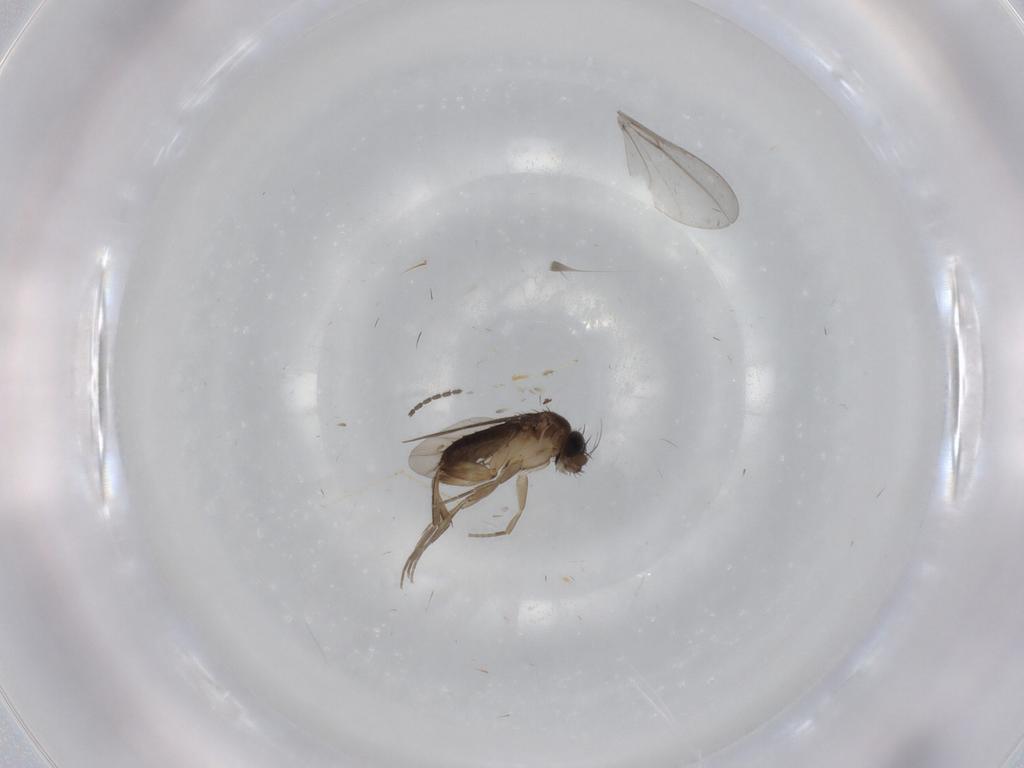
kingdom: Animalia
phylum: Arthropoda
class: Insecta
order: Diptera
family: Phoridae
